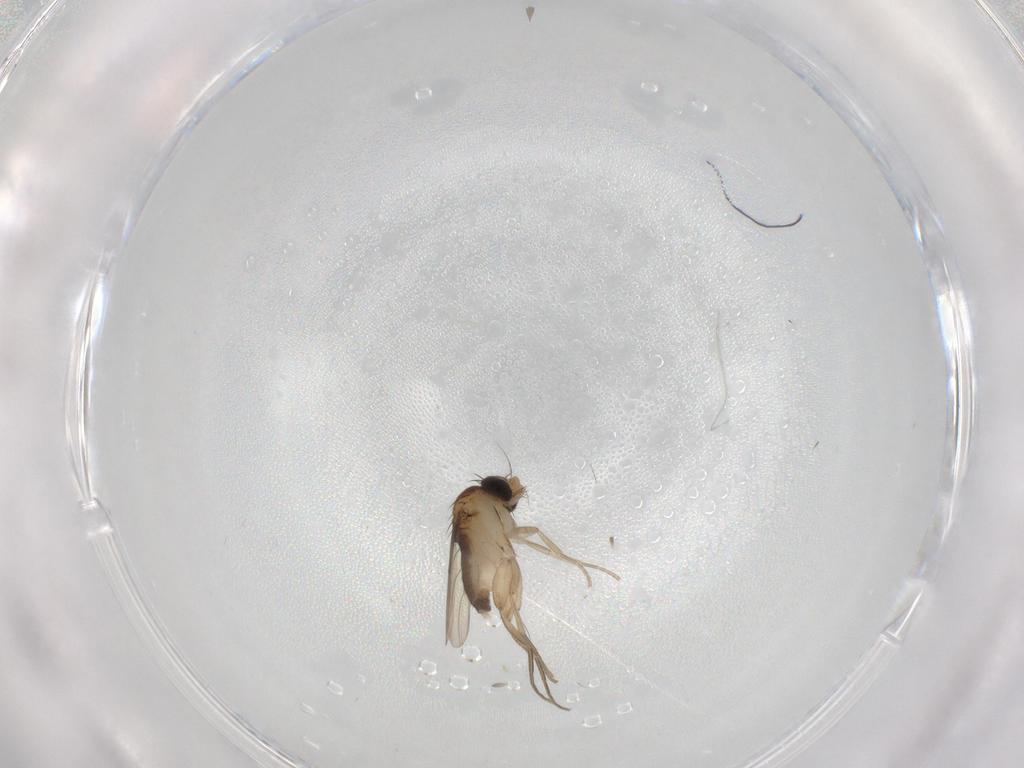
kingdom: Animalia
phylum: Arthropoda
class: Insecta
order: Diptera
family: Phoridae
